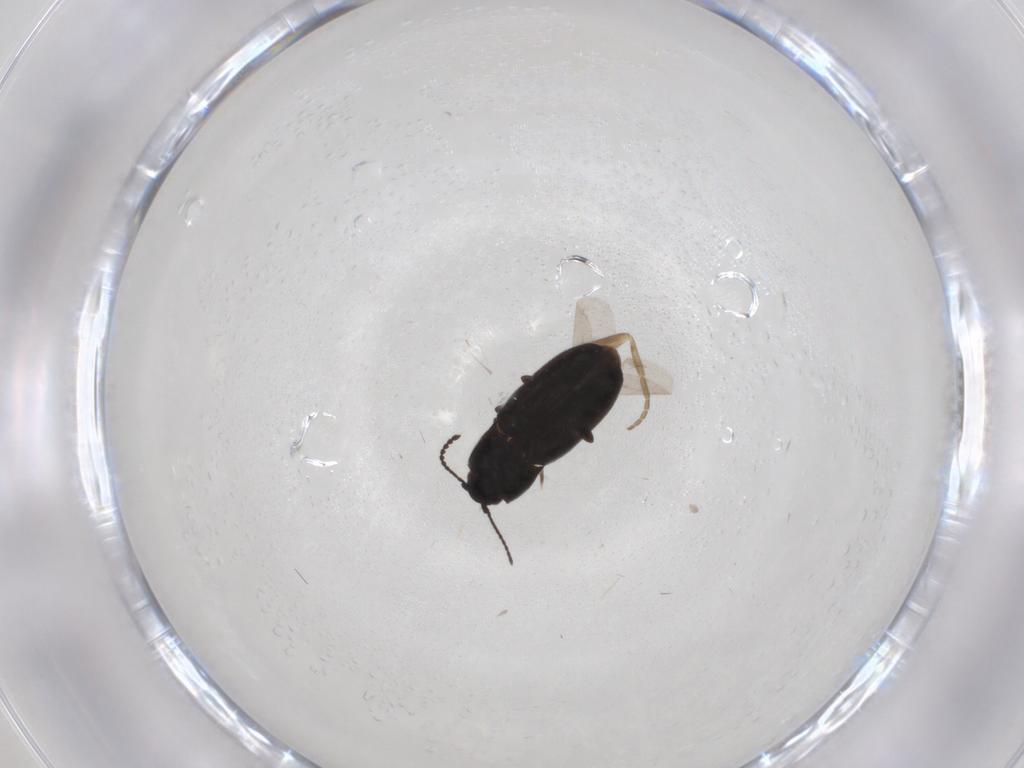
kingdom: Animalia
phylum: Arthropoda
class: Insecta
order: Coleoptera
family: Elateridae
